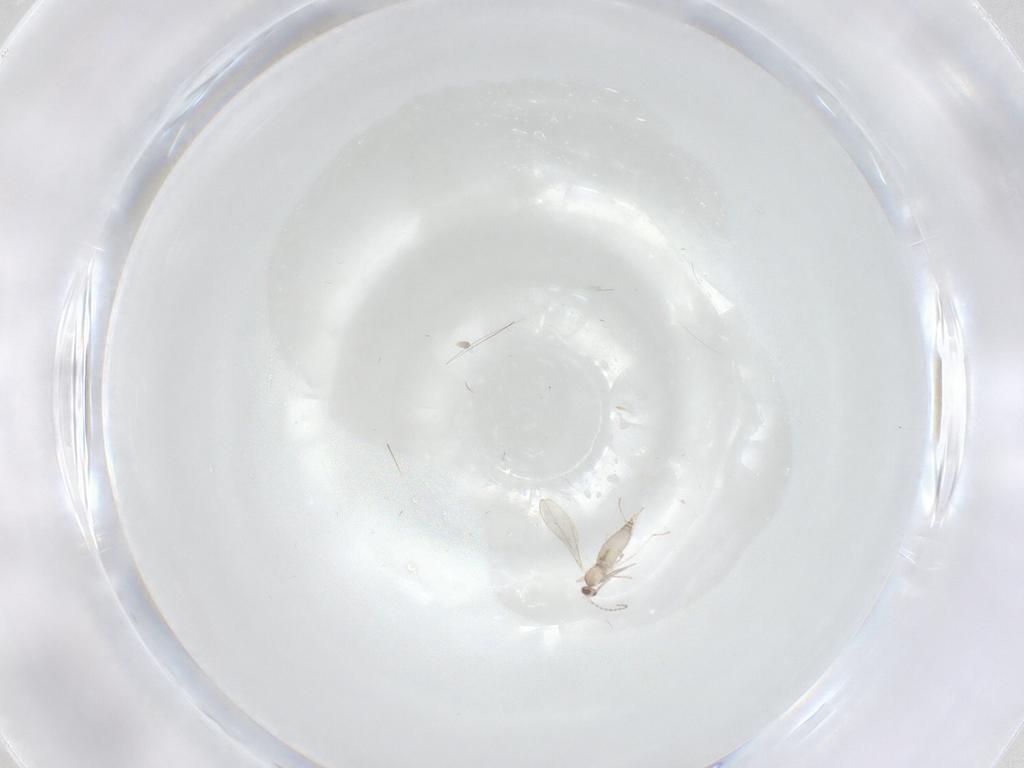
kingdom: Animalia
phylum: Arthropoda
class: Insecta
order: Diptera
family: Cecidomyiidae
